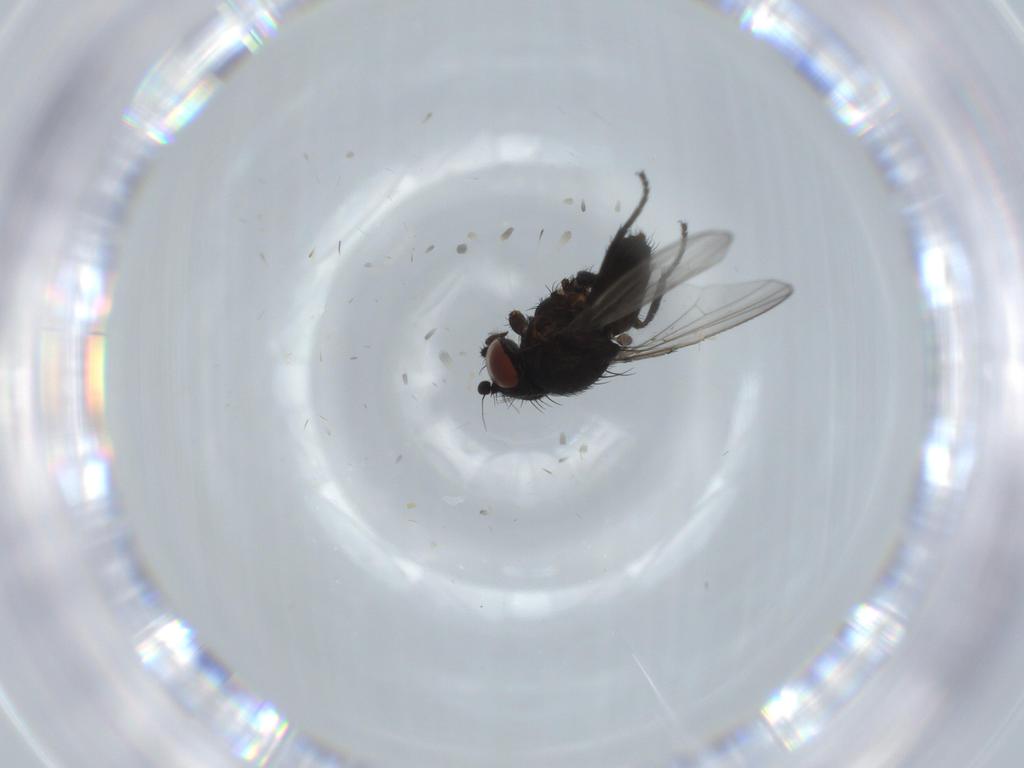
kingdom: Animalia
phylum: Arthropoda
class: Insecta
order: Diptera
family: Milichiidae
